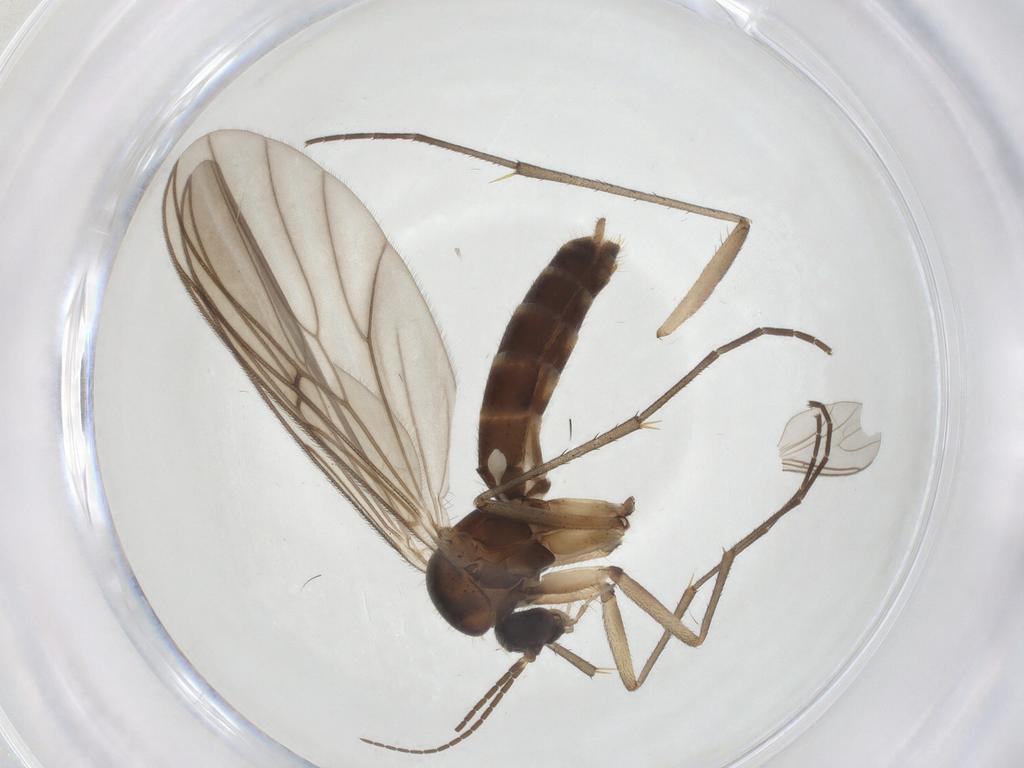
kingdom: Animalia
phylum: Arthropoda
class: Insecta
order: Diptera
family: Mycetophilidae
